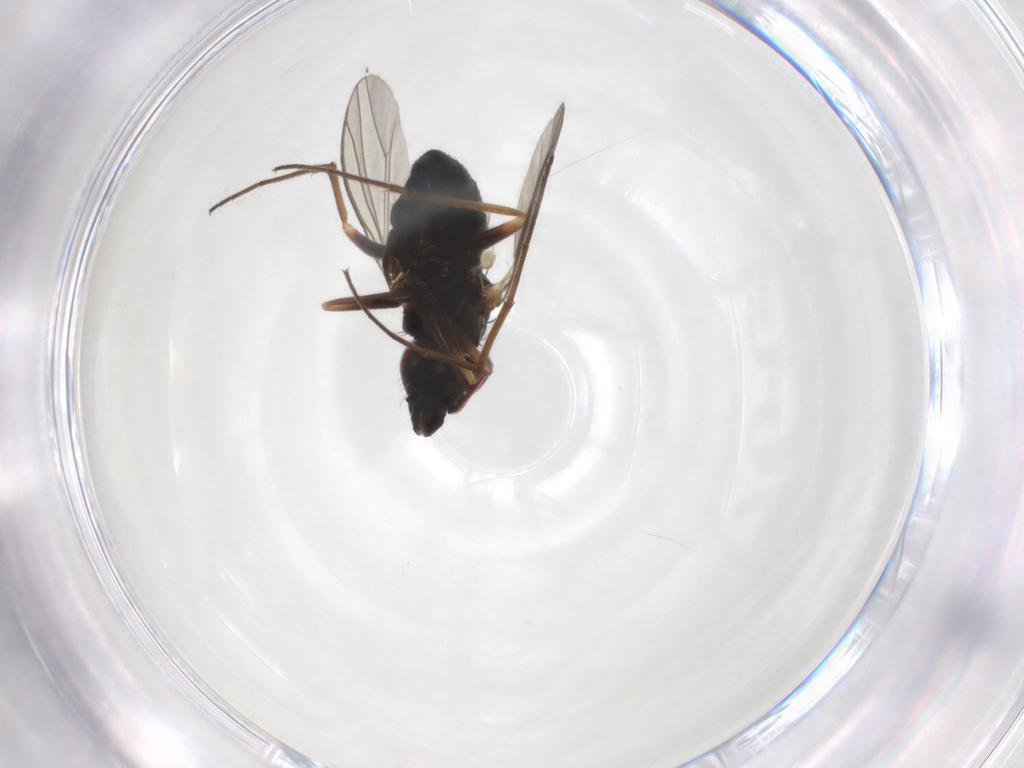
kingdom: Animalia
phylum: Arthropoda
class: Insecta
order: Diptera
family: Dolichopodidae
